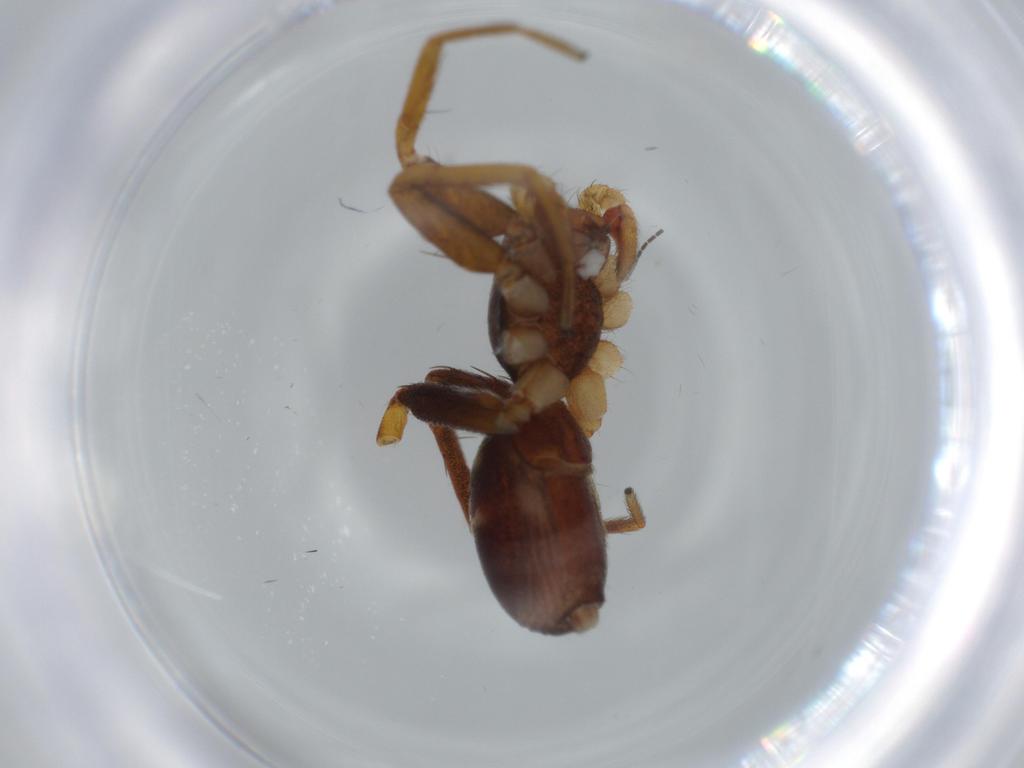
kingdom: Animalia
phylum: Arthropoda
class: Arachnida
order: Araneae
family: Corinnidae
